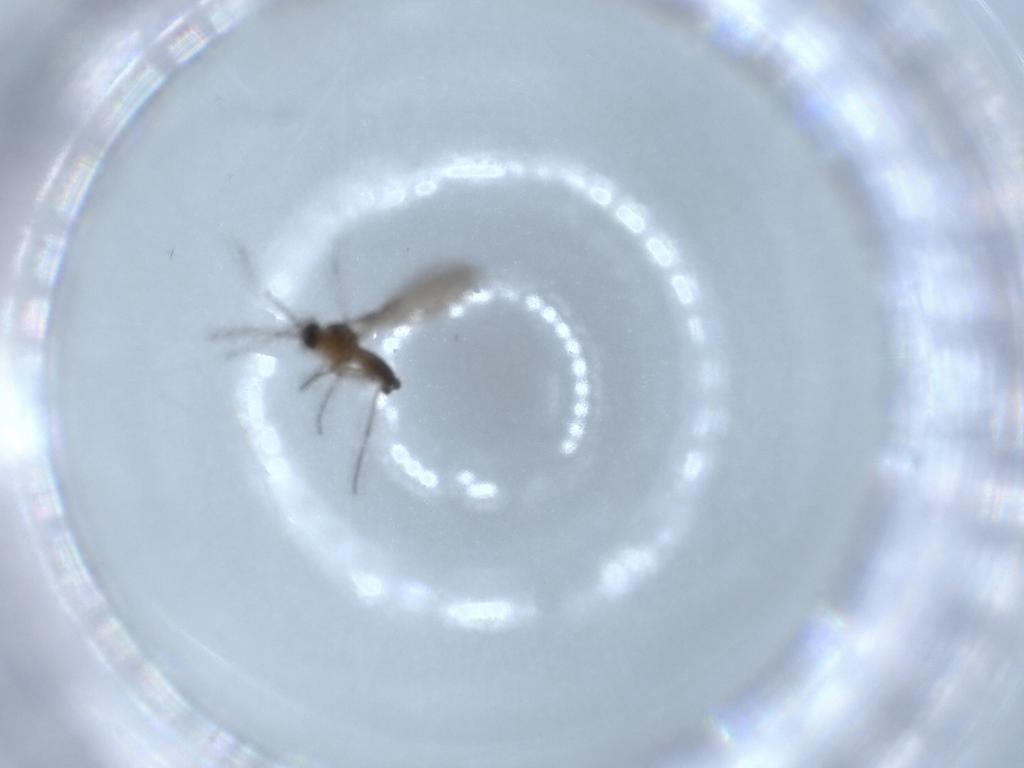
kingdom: Animalia
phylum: Arthropoda
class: Insecta
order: Diptera
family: Sciaridae
